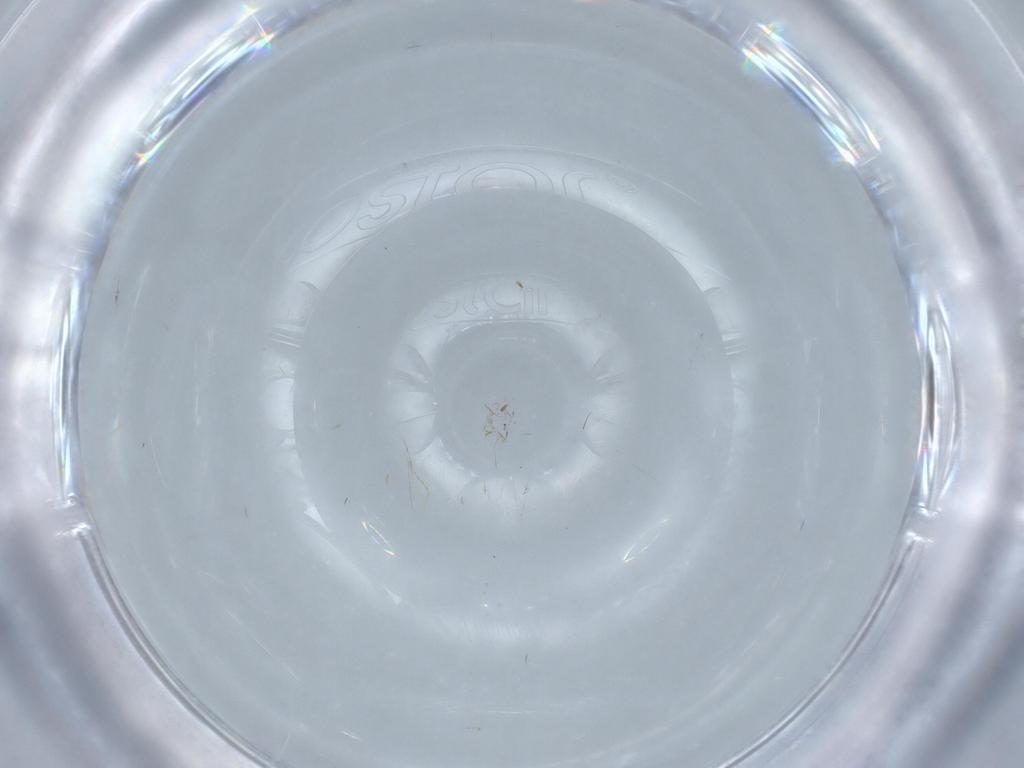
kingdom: Animalia
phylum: Arthropoda
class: Insecta
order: Psocodea
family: Lepidopsocidae
